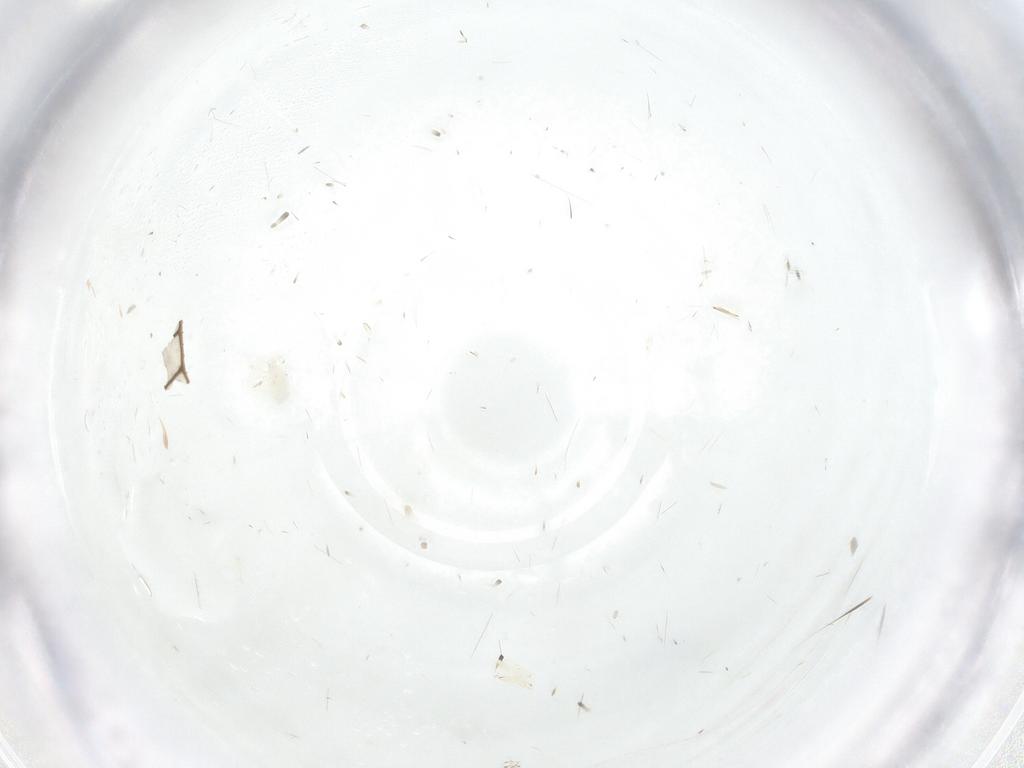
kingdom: Animalia
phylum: Arthropoda
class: Arachnida
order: Trombidiformes
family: Anystidae
